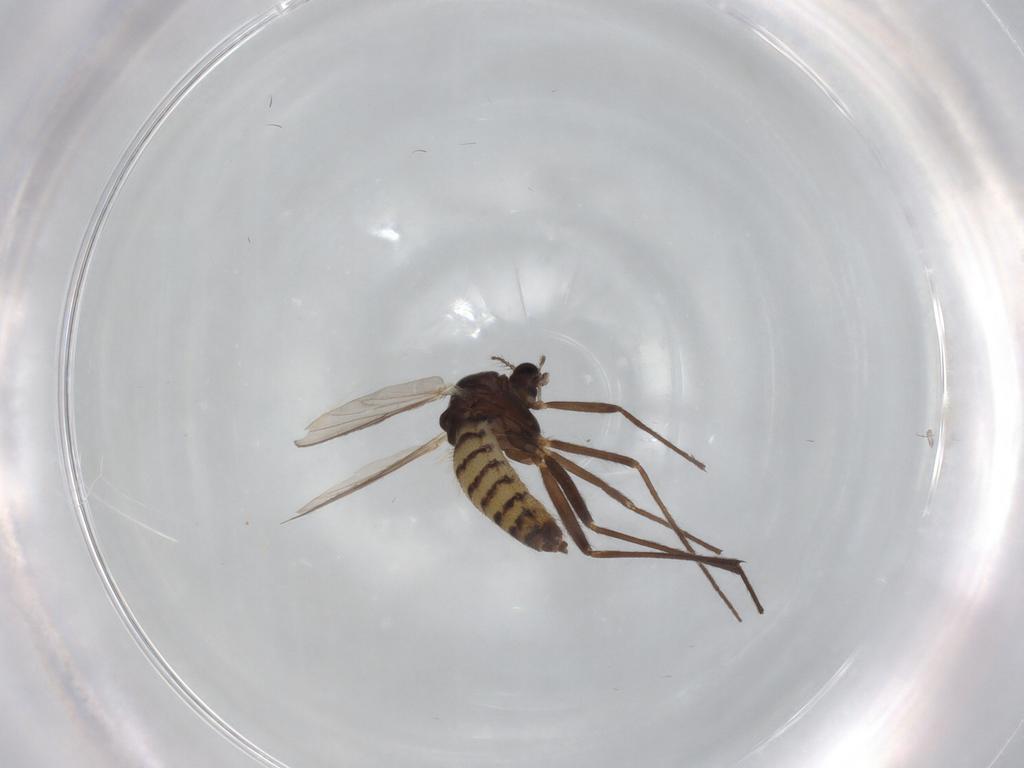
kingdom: Animalia
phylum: Arthropoda
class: Insecta
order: Diptera
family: Chironomidae
